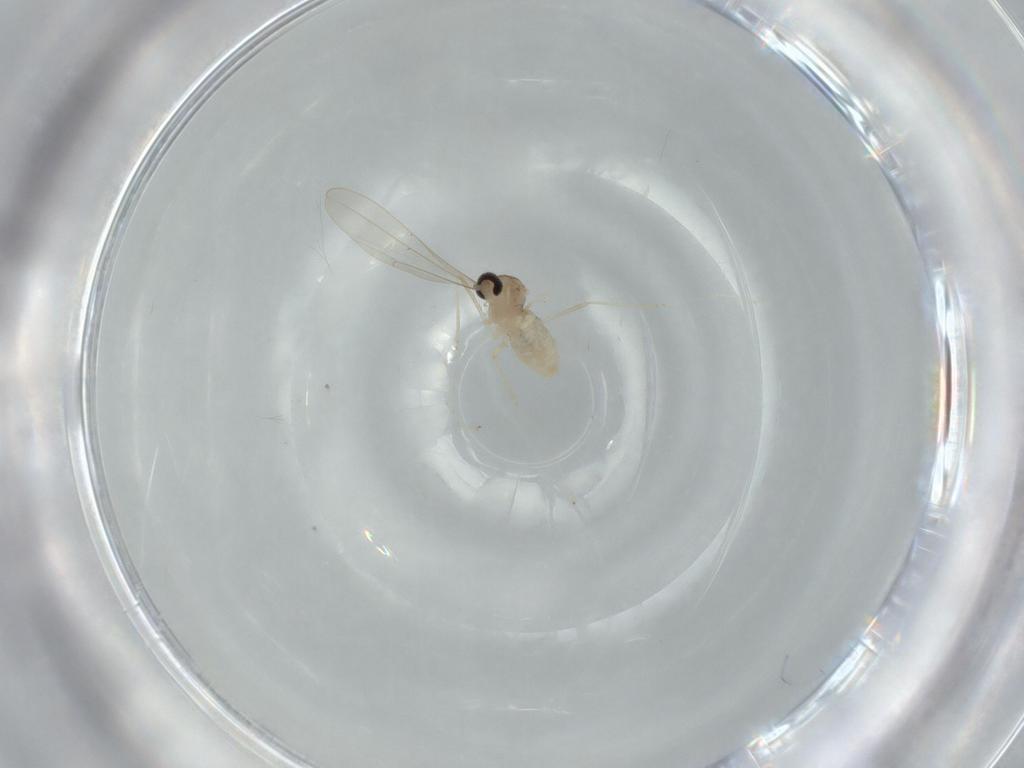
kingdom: Animalia
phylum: Arthropoda
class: Insecta
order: Diptera
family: Cecidomyiidae
